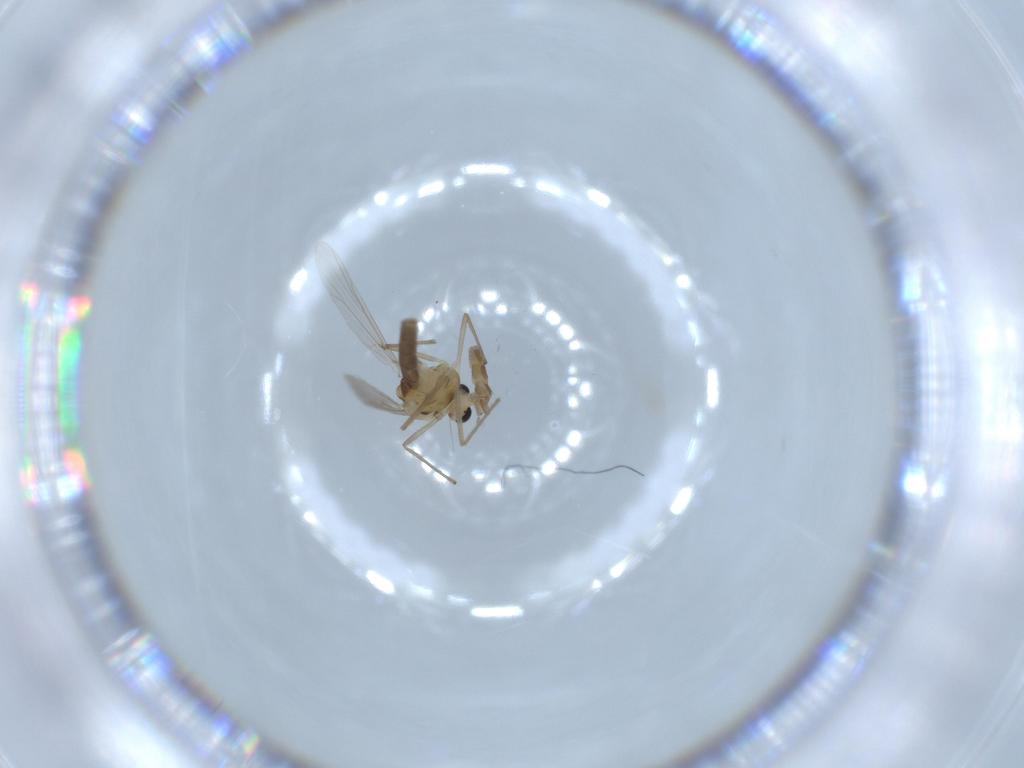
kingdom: Animalia
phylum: Arthropoda
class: Insecta
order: Diptera
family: Chironomidae
